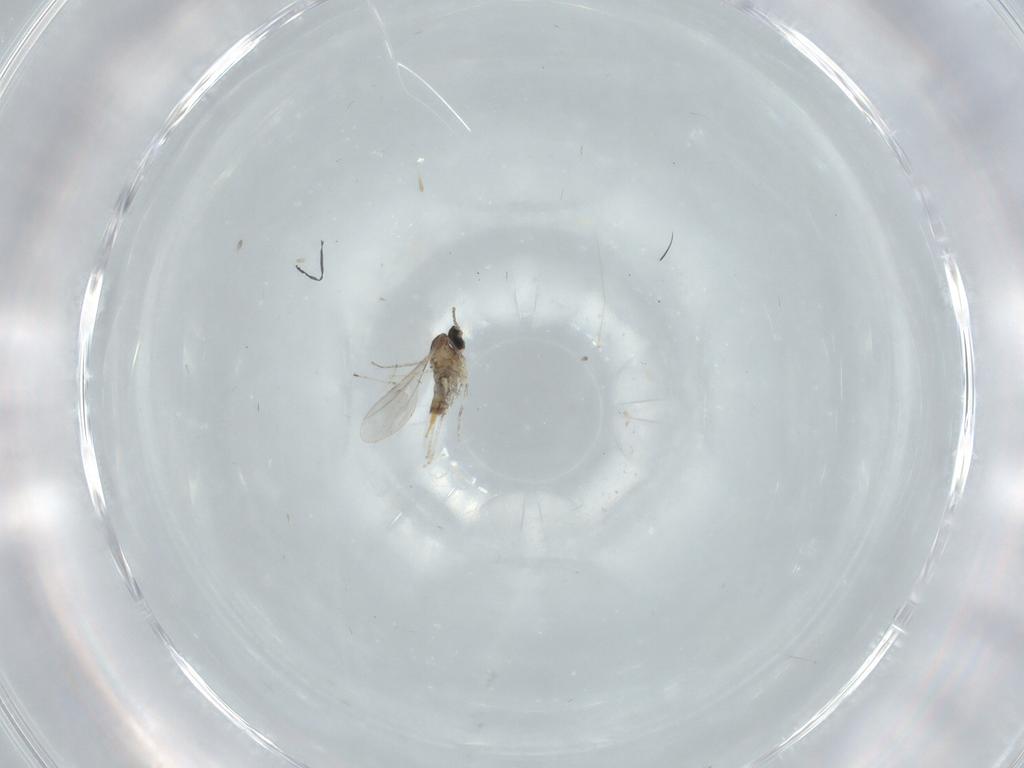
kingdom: Animalia
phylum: Arthropoda
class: Insecta
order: Diptera
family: Cecidomyiidae
